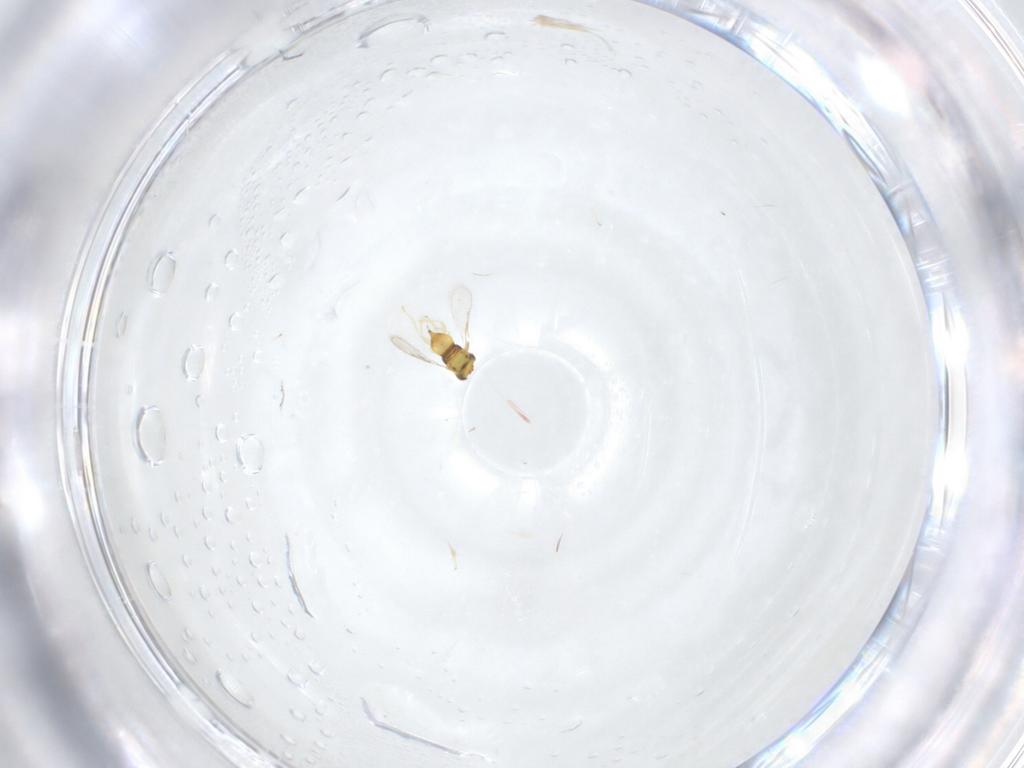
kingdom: Animalia
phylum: Arthropoda
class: Insecta
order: Hymenoptera
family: Aphelinidae
